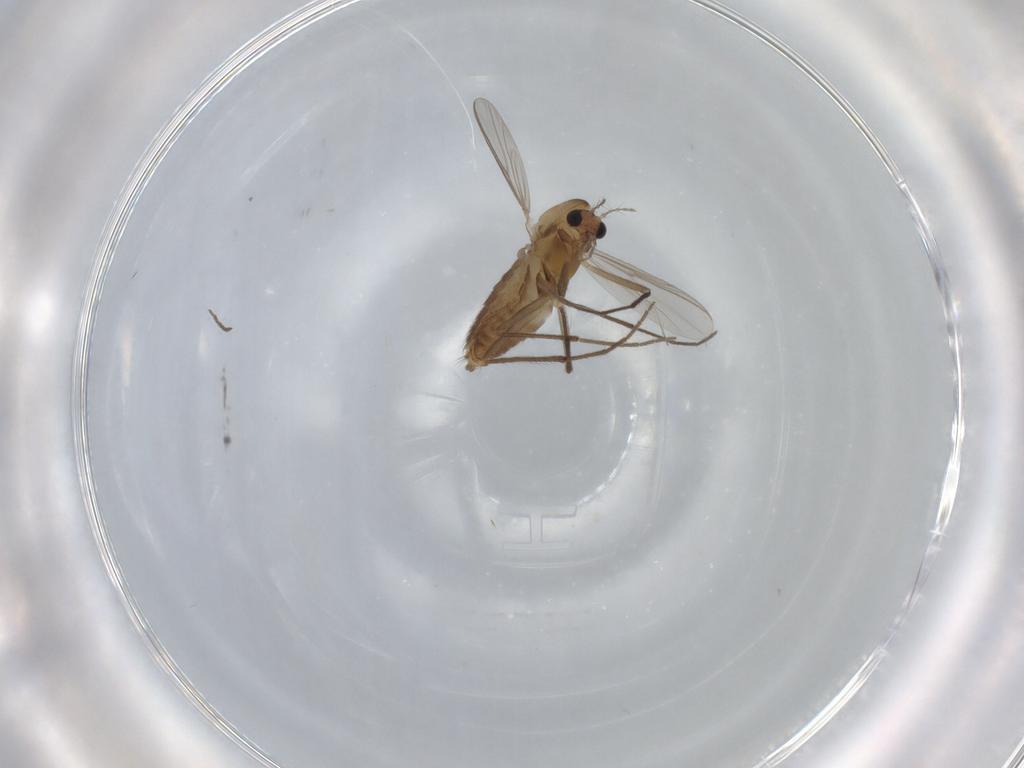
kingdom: Animalia
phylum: Arthropoda
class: Insecta
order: Diptera
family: Chironomidae
